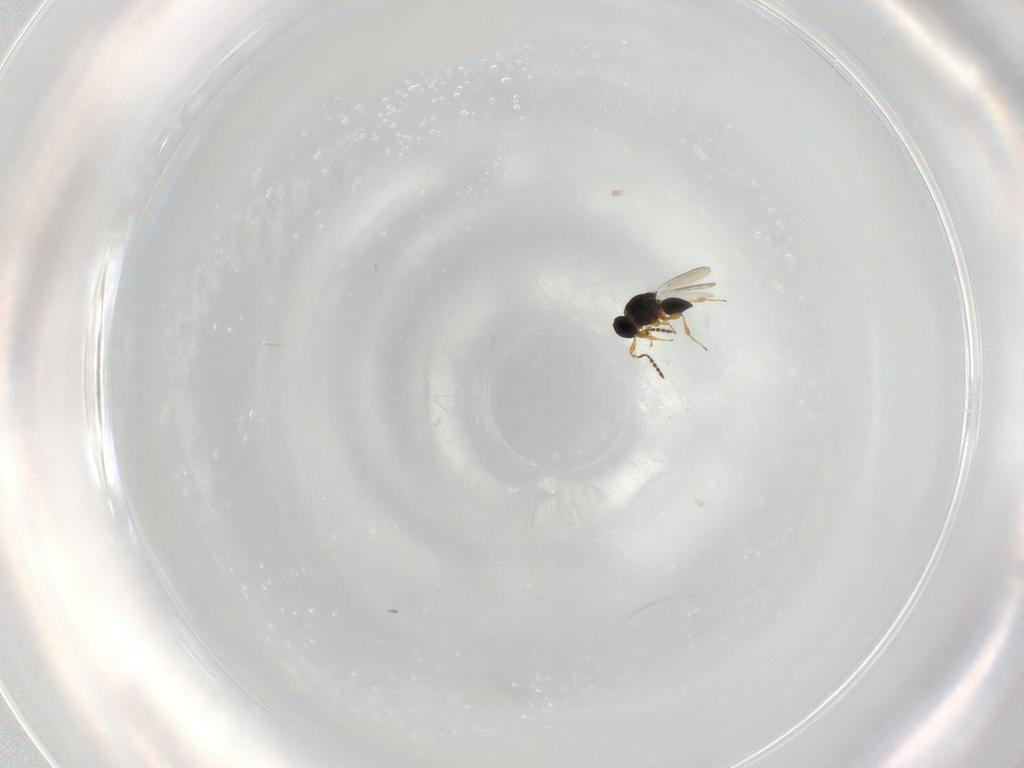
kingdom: Animalia
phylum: Arthropoda
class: Insecta
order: Hymenoptera
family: Platygastridae
